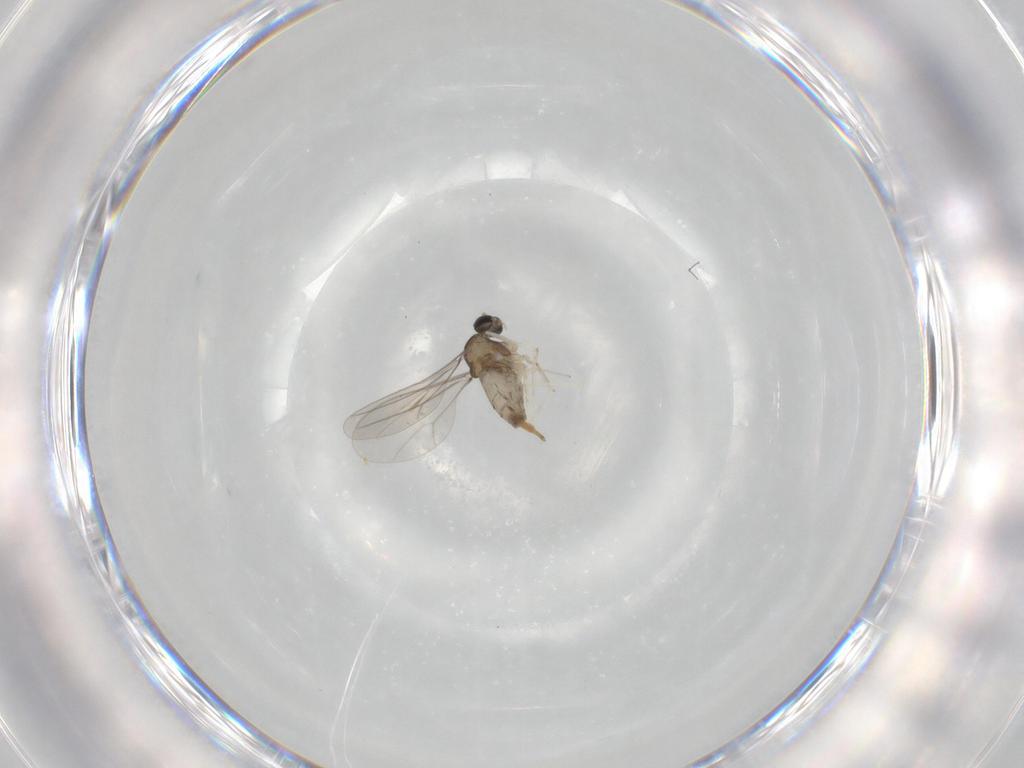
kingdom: Animalia
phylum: Arthropoda
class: Insecta
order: Diptera
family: Cecidomyiidae
